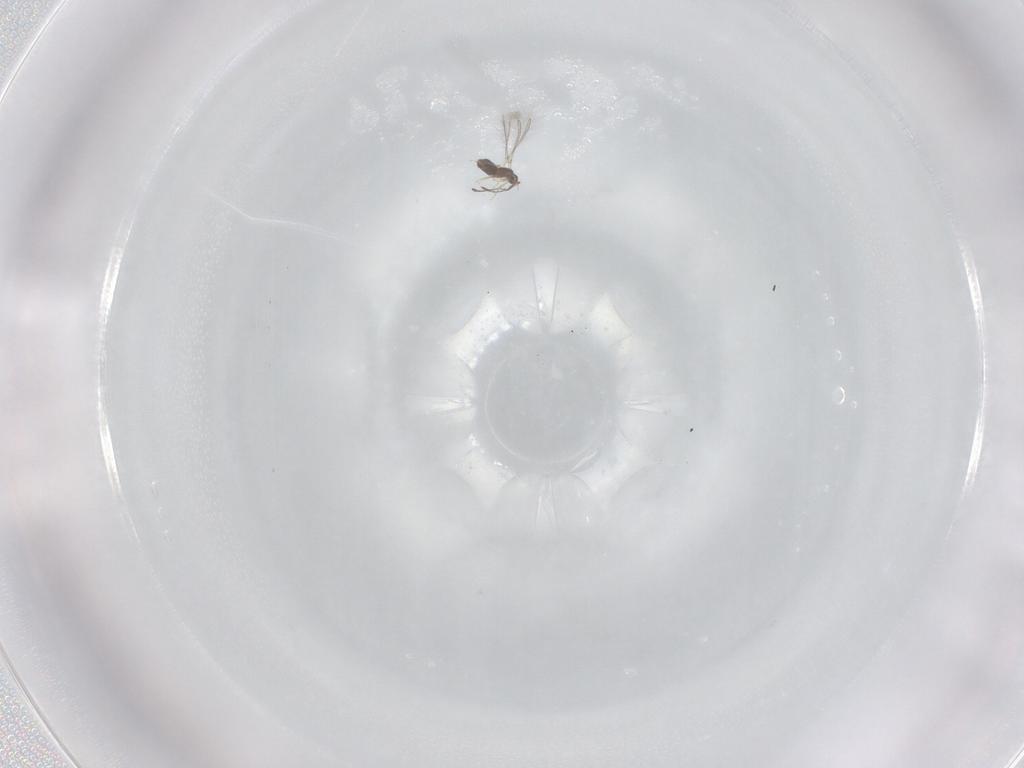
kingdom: Animalia
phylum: Arthropoda
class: Insecta
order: Hymenoptera
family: Mymaridae
